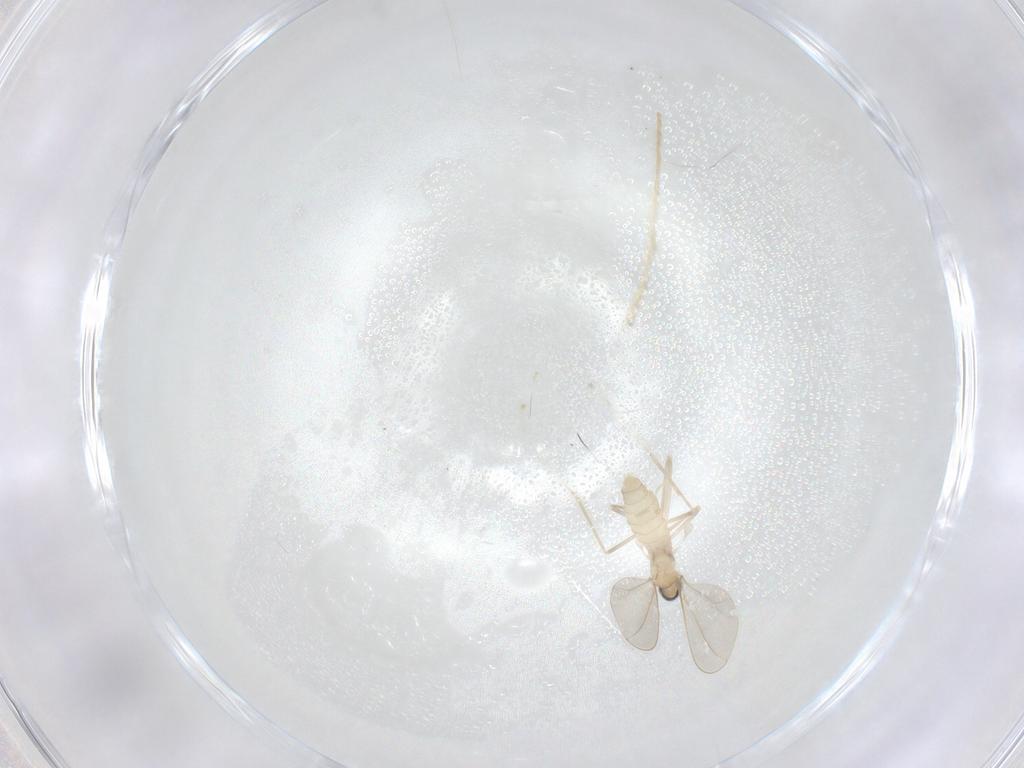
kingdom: Animalia
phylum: Arthropoda
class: Insecta
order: Diptera
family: Cecidomyiidae
